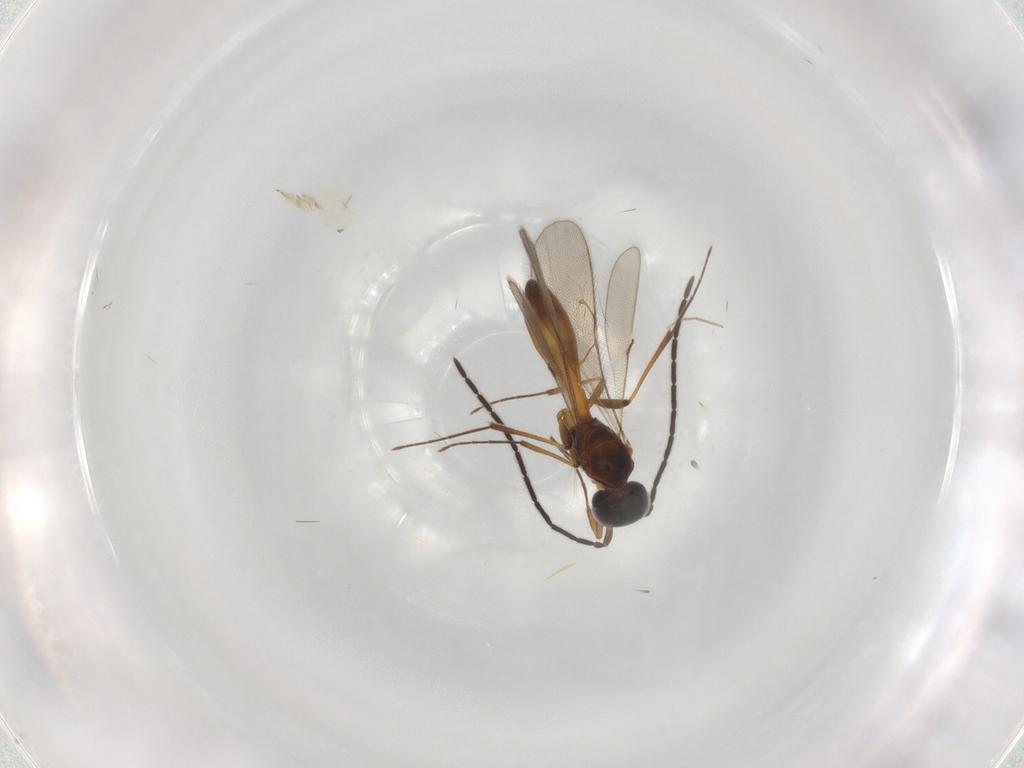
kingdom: Animalia
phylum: Arthropoda
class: Insecta
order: Hymenoptera
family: Scelionidae
